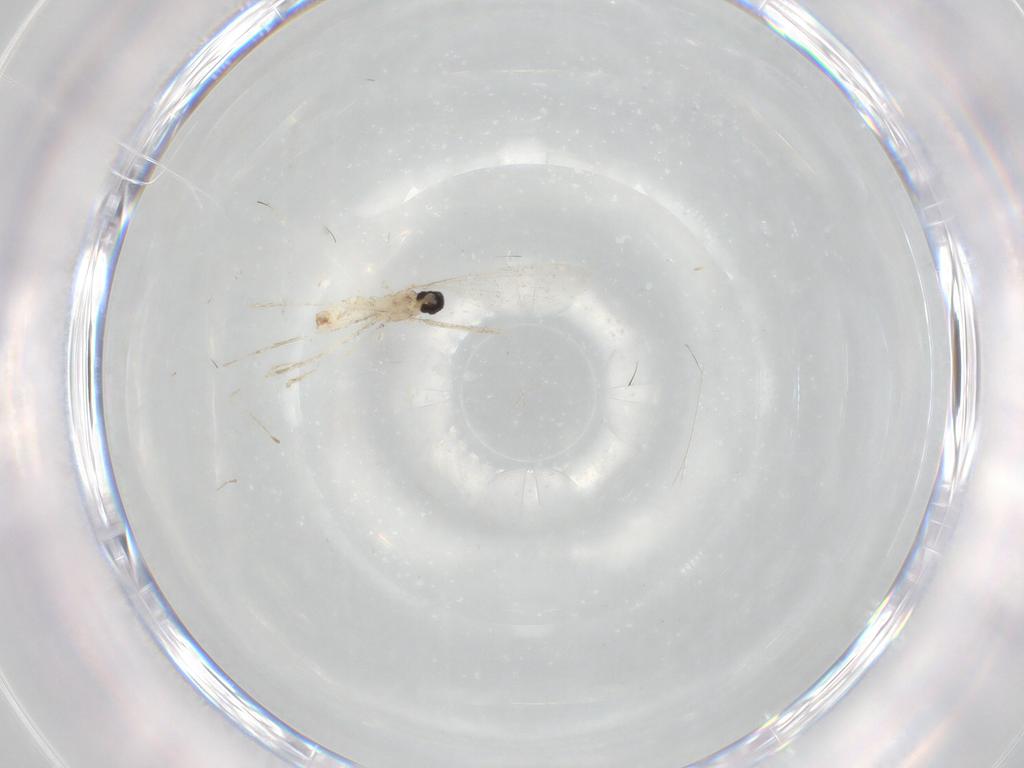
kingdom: Animalia
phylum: Arthropoda
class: Insecta
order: Diptera
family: Cecidomyiidae
